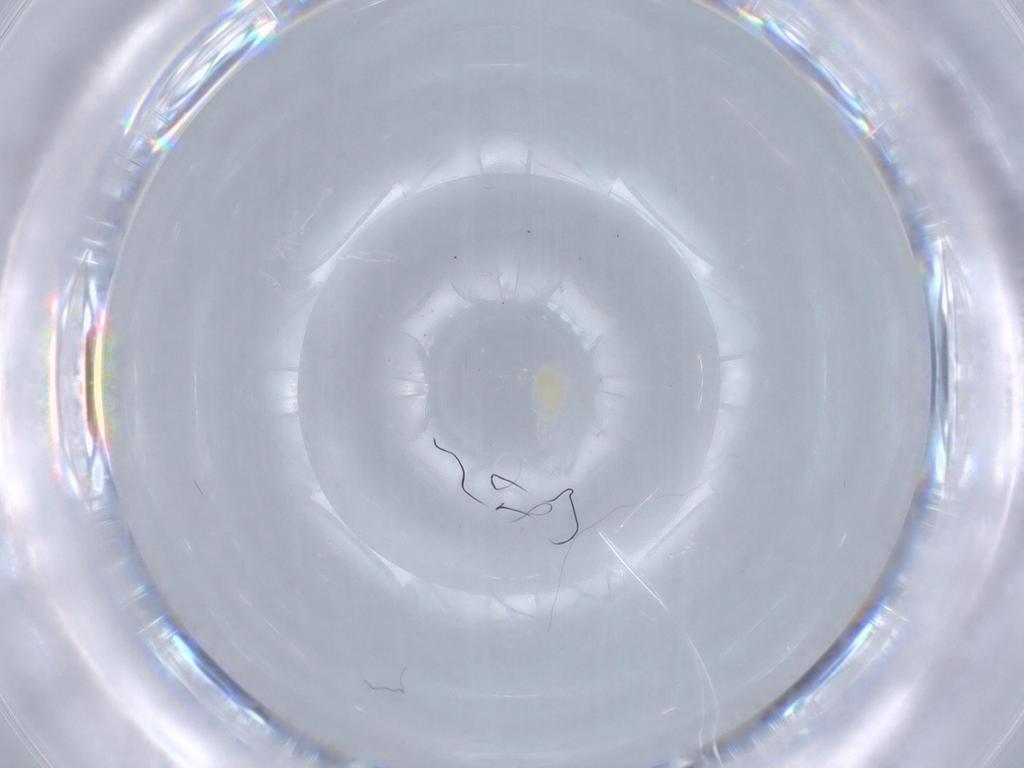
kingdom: Animalia
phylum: Arthropoda
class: Arachnida
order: Trombidiformes
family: Eupodidae
